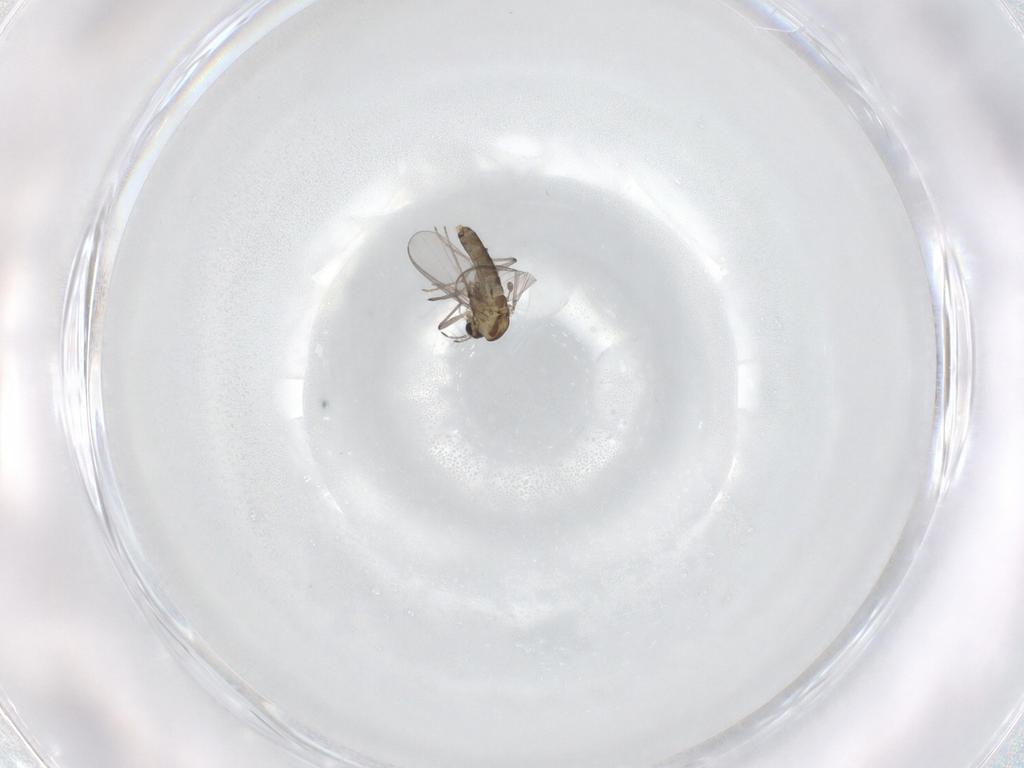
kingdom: Animalia
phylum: Arthropoda
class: Insecta
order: Diptera
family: Chironomidae
